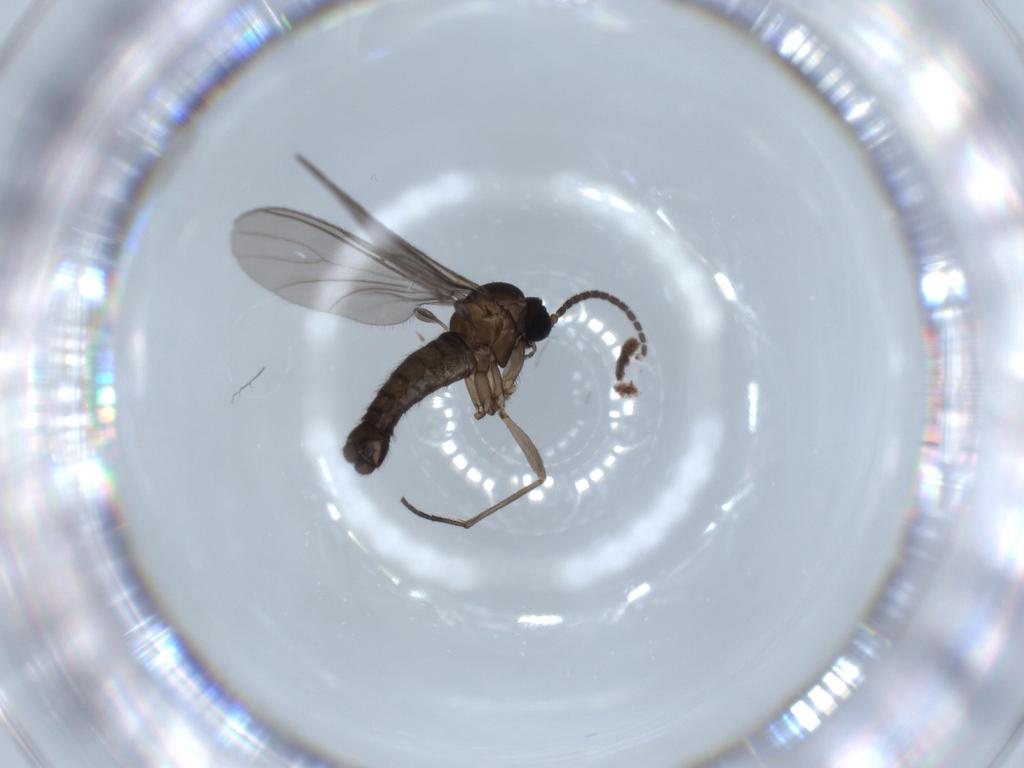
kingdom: Animalia
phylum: Arthropoda
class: Insecta
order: Diptera
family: Sciaridae
